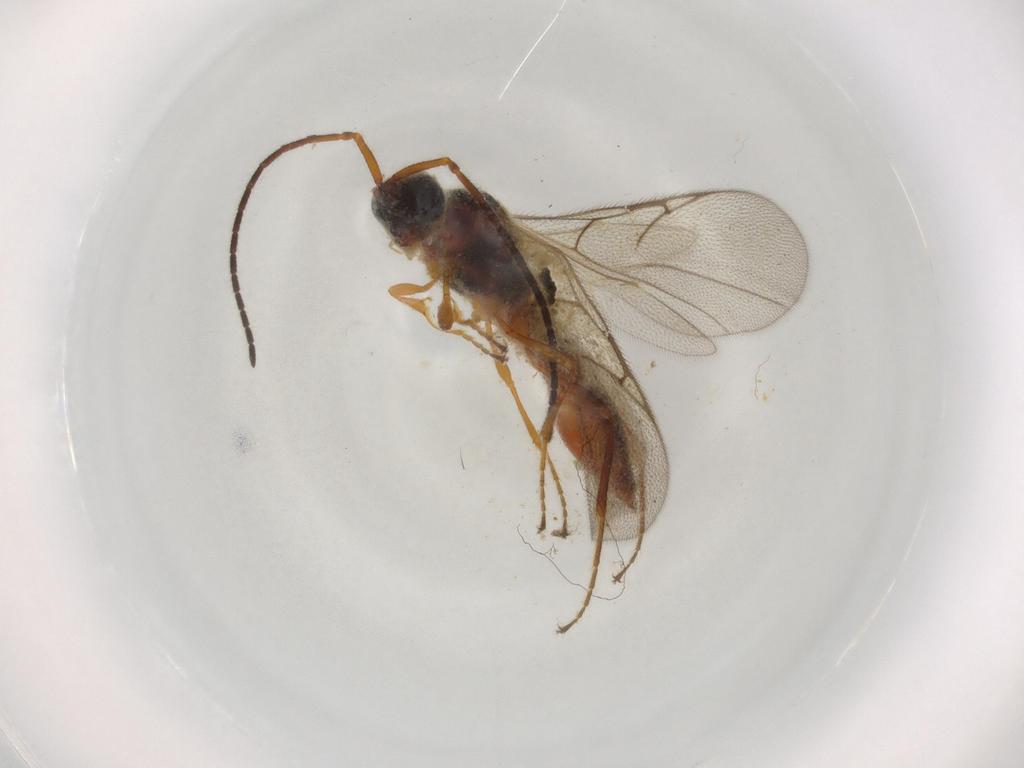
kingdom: Animalia
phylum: Arthropoda
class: Insecta
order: Hymenoptera
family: Diapriidae
